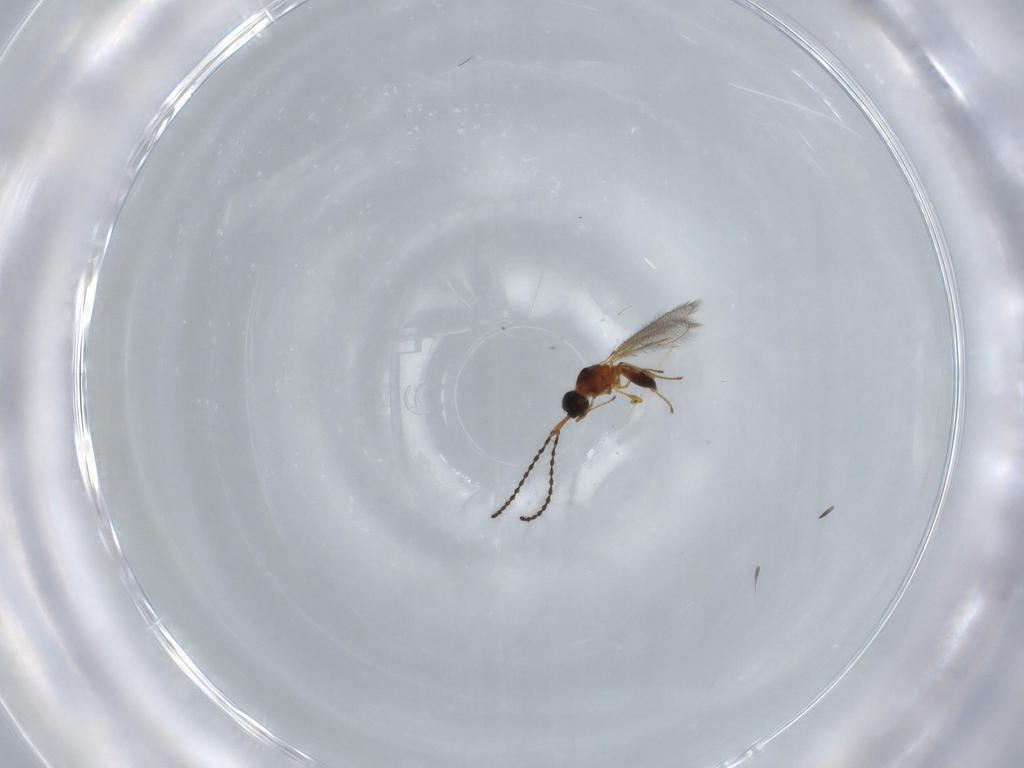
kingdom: Animalia
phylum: Arthropoda
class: Insecta
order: Hymenoptera
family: Diapriidae
